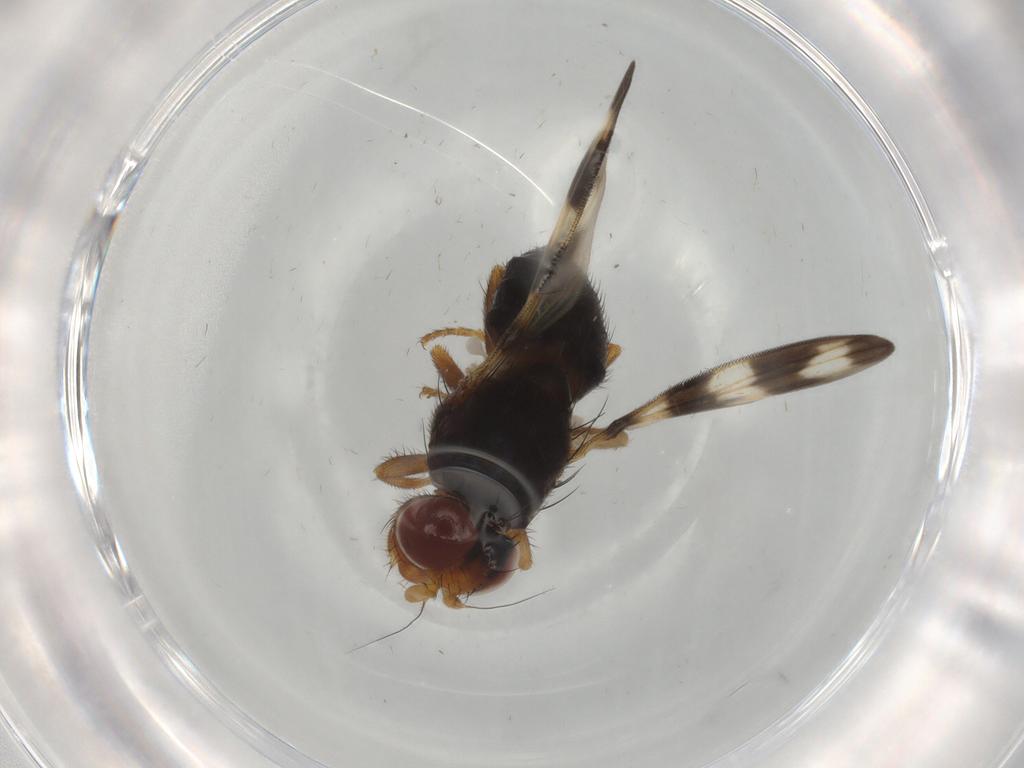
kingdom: Animalia
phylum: Arthropoda
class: Insecta
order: Diptera
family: Ulidiidae
